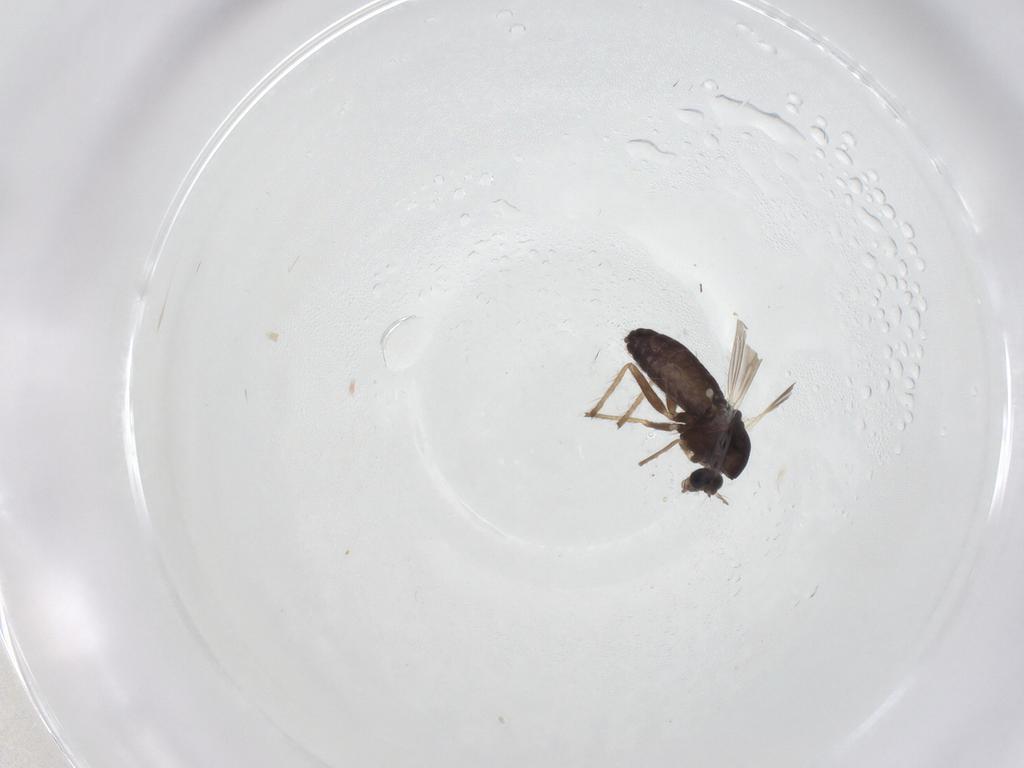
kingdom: Animalia
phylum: Arthropoda
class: Insecta
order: Diptera
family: Chironomidae
